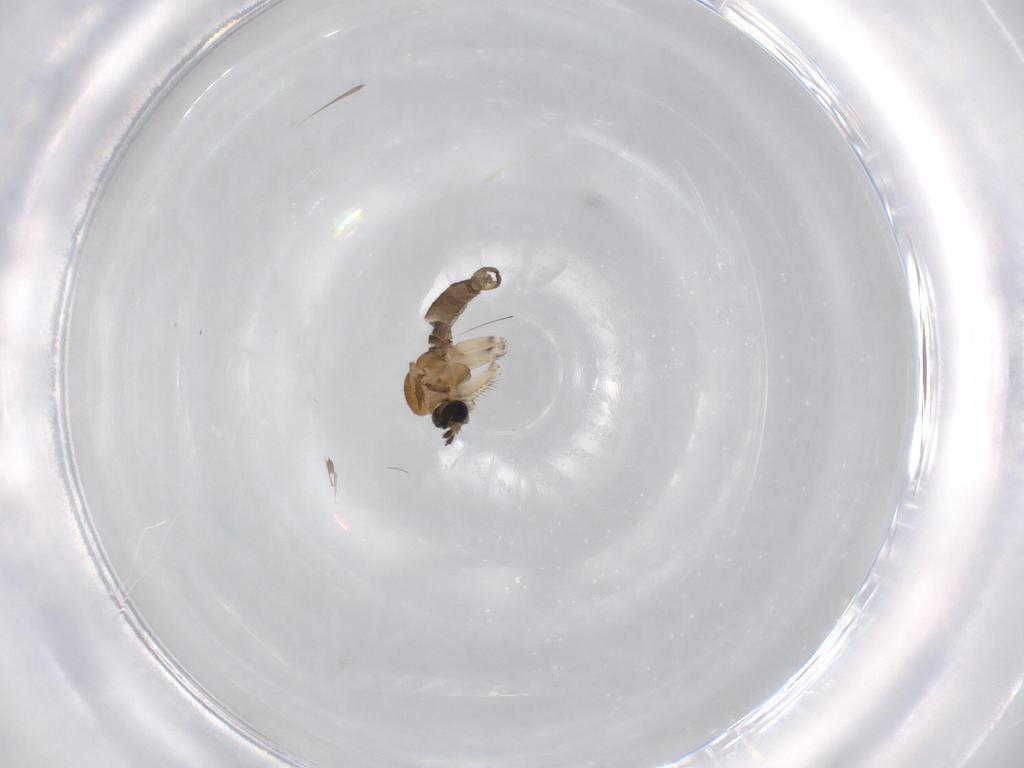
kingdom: Animalia
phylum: Arthropoda
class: Insecta
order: Diptera
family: Sciaridae
